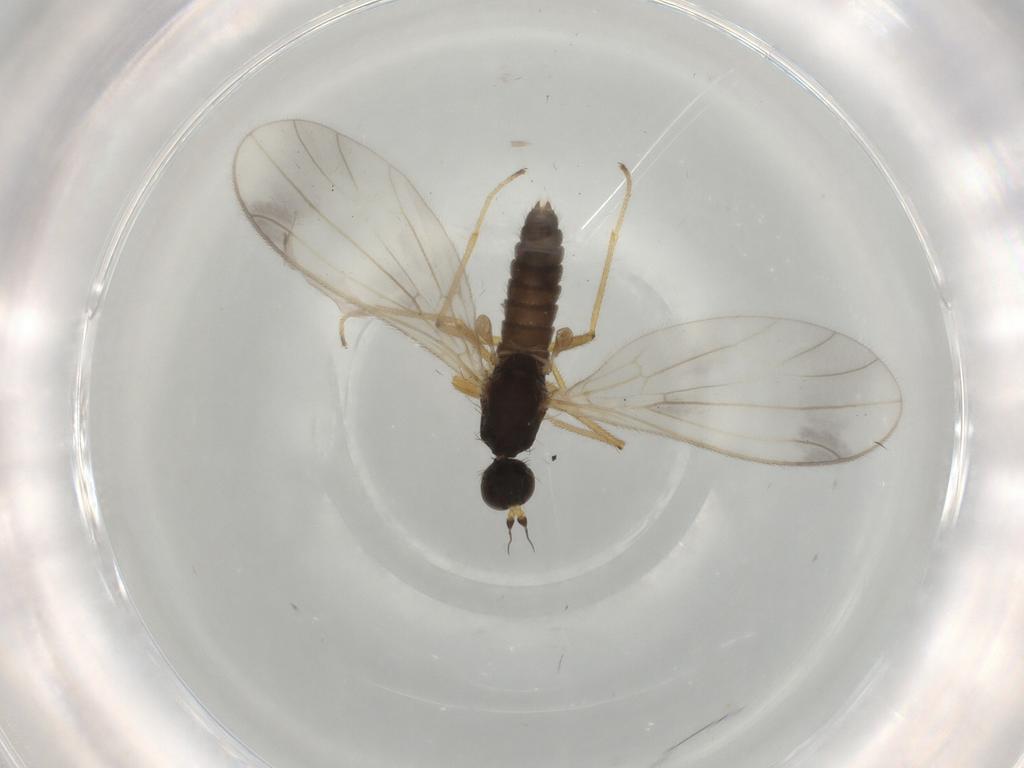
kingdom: Animalia
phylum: Arthropoda
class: Insecta
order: Diptera
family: Chironomidae
